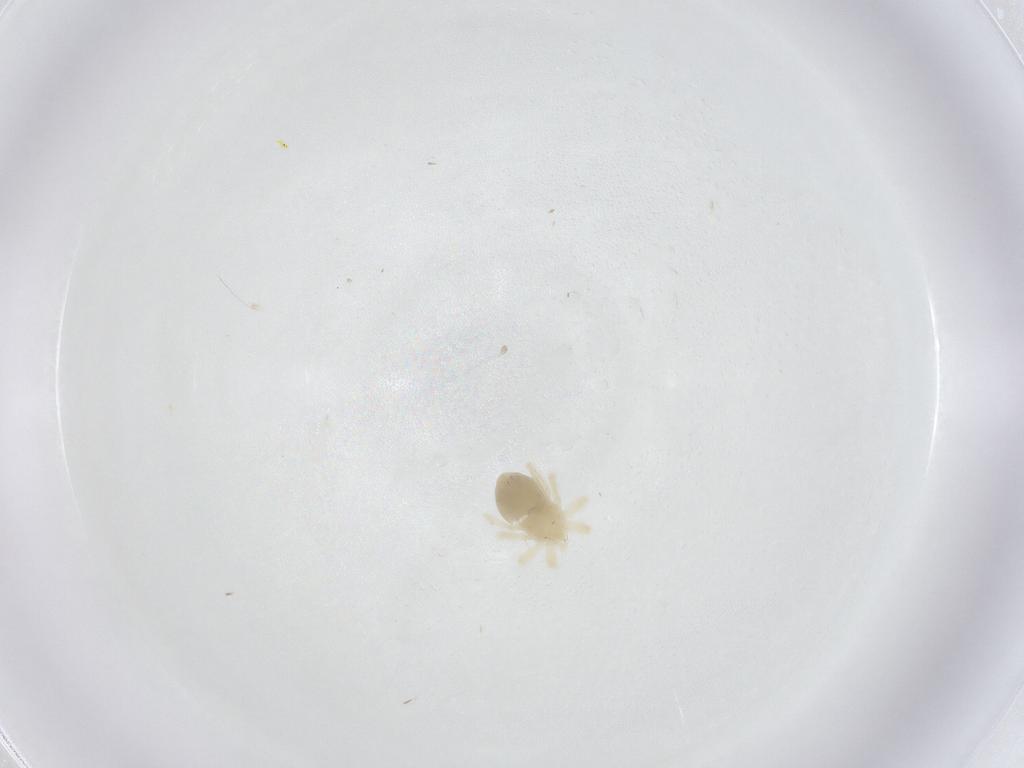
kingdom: Animalia
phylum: Arthropoda
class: Arachnida
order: Trombidiformes
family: Anystidae
